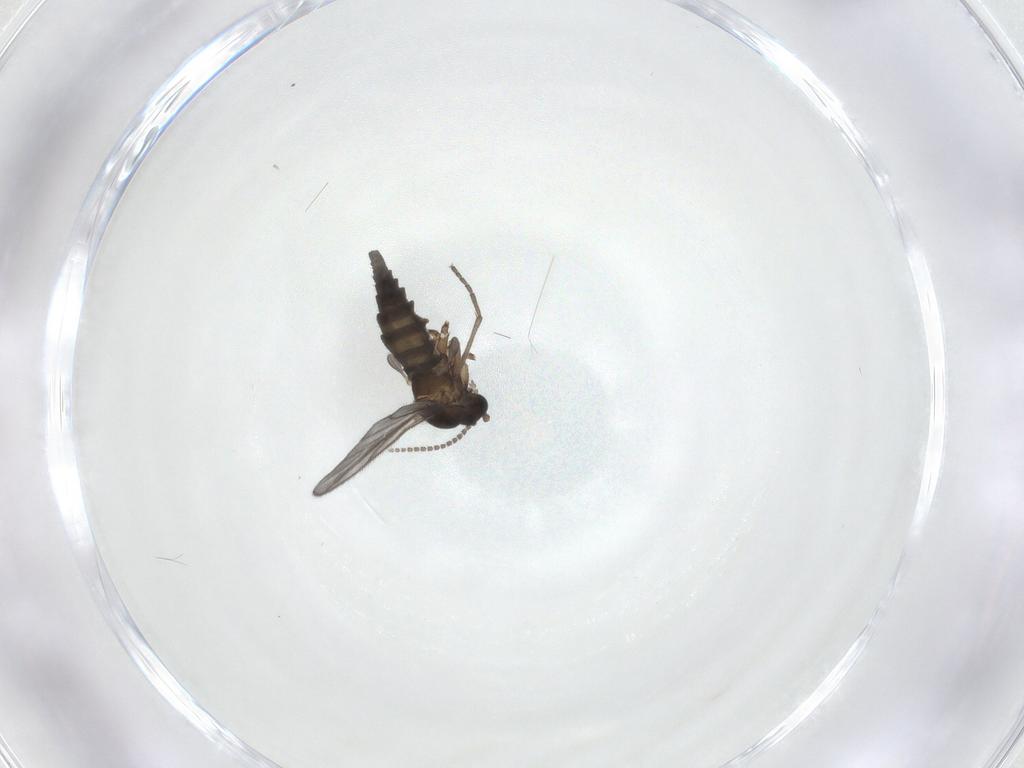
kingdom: Animalia
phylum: Arthropoda
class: Insecta
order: Diptera
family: Sciaridae
